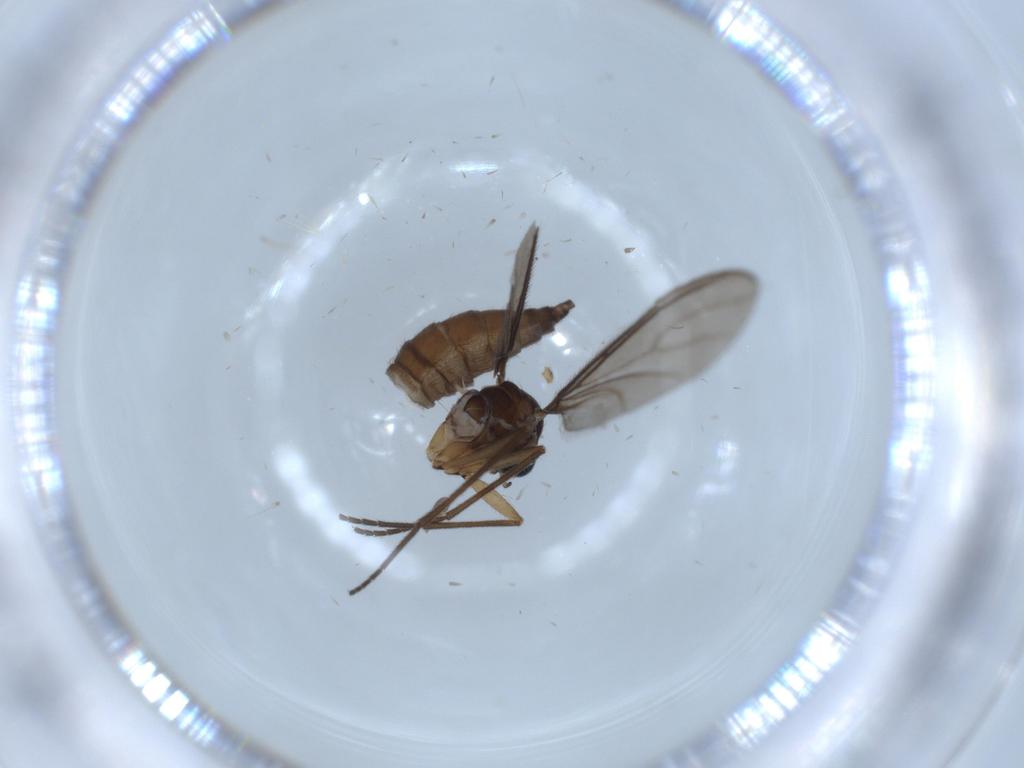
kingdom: Animalia
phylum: Arthropoda
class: Insecta
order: Diptera
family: Sciaridae
